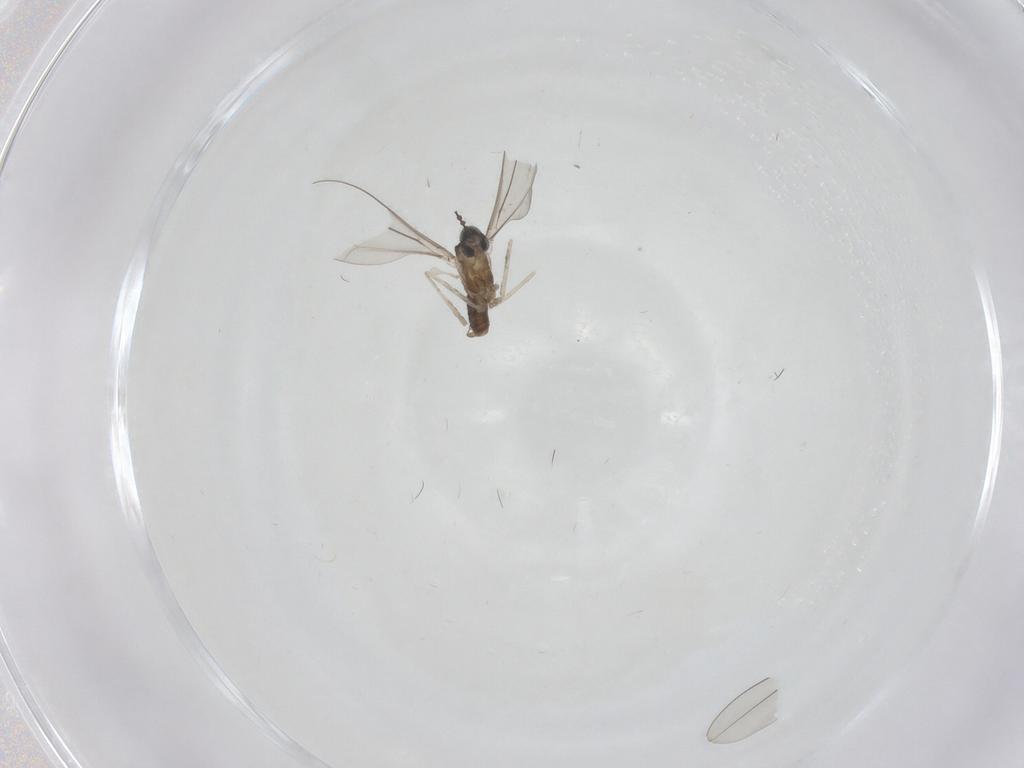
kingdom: Animalia
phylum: Arthropoda
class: Insecta
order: Diptera
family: Cecidomyiidae
